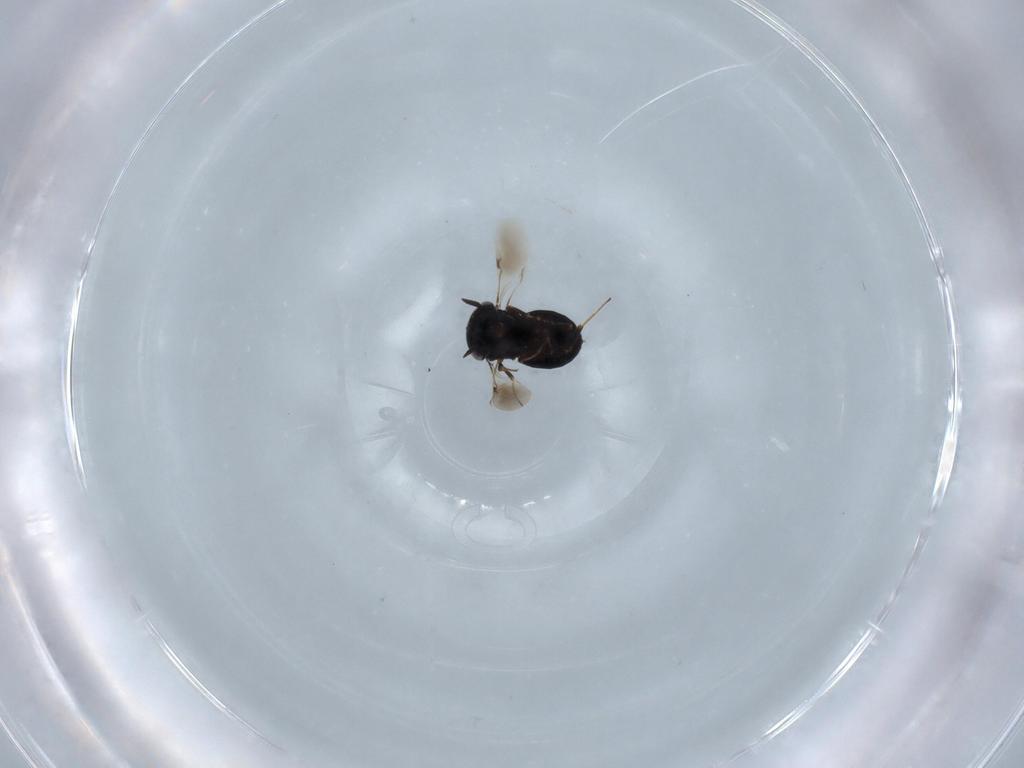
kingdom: Animalia
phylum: Arthropoda
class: Insecta
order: Hymenoptera
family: Scelionidae
